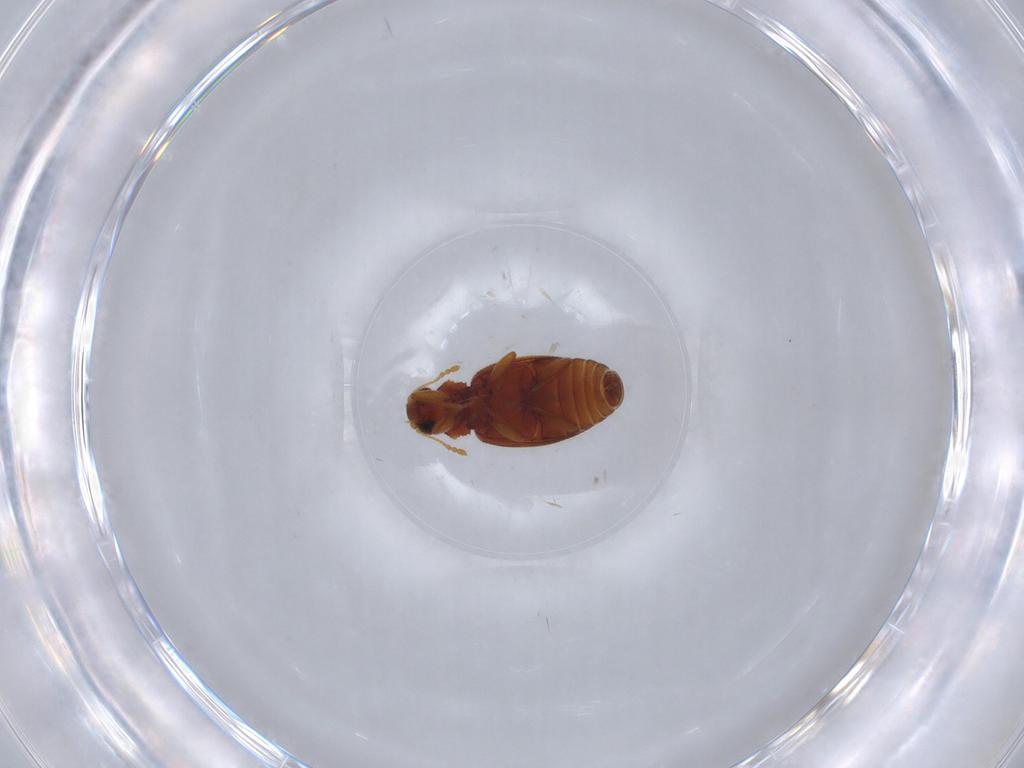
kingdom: Animalia
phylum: Arthropoda
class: Insecta
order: Coleoptera
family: Latridiidae
